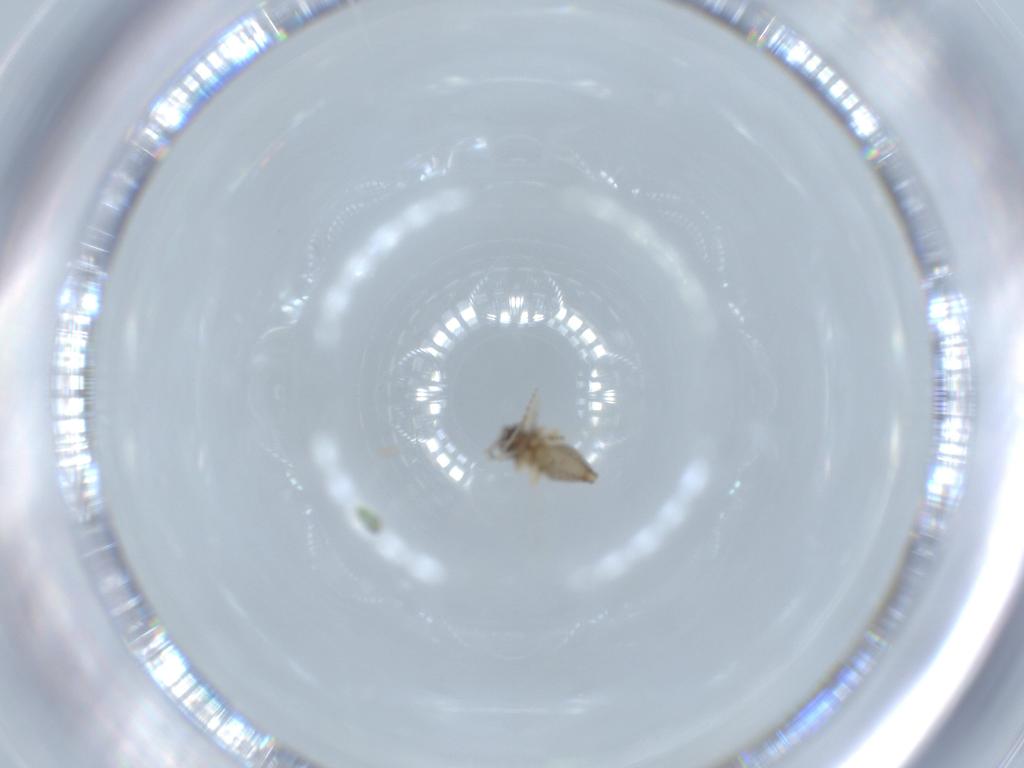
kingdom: Animalia
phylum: Arthropoda
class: Insecta
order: Diptera
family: Ceratopogonidae
